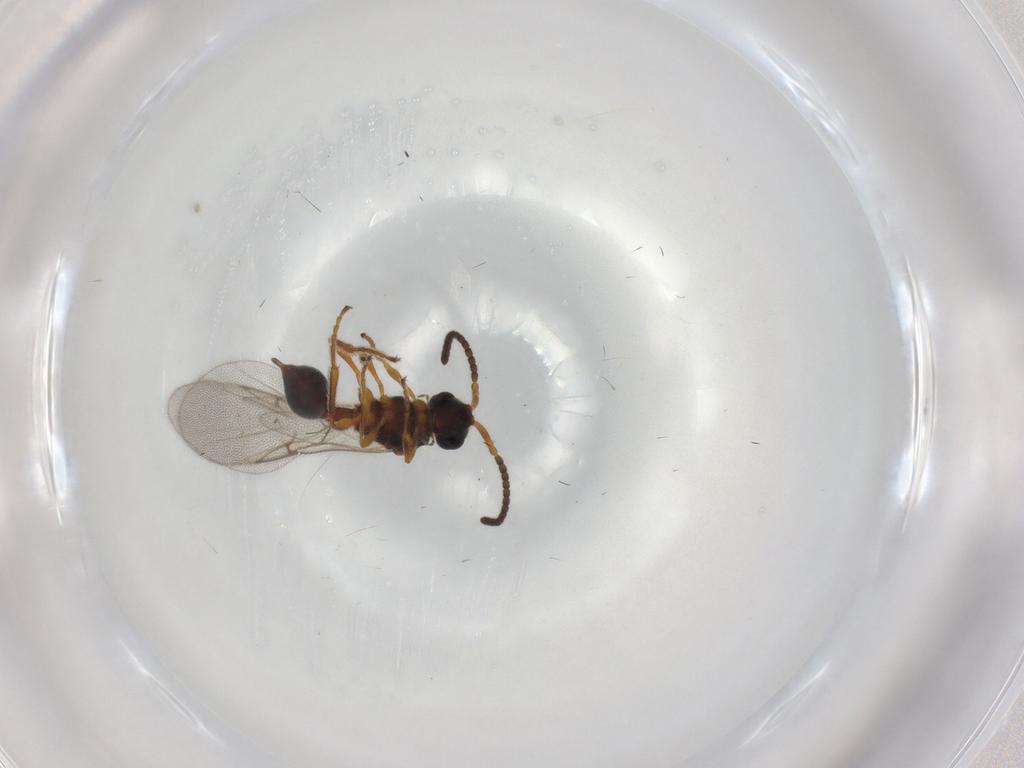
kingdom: Animalia
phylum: Arthropoda
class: Insecta
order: Hymenoptera
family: Diapriidae
